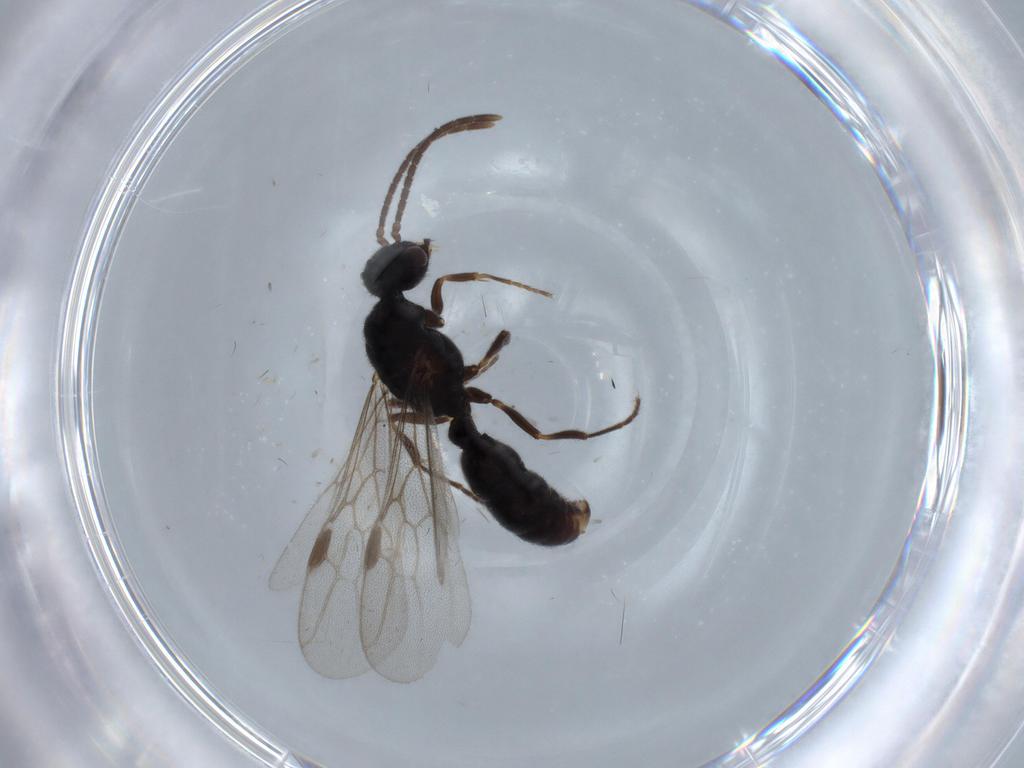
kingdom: Animalia
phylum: Arthropoda
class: Insecta
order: Hymenoptera
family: Formicidae
